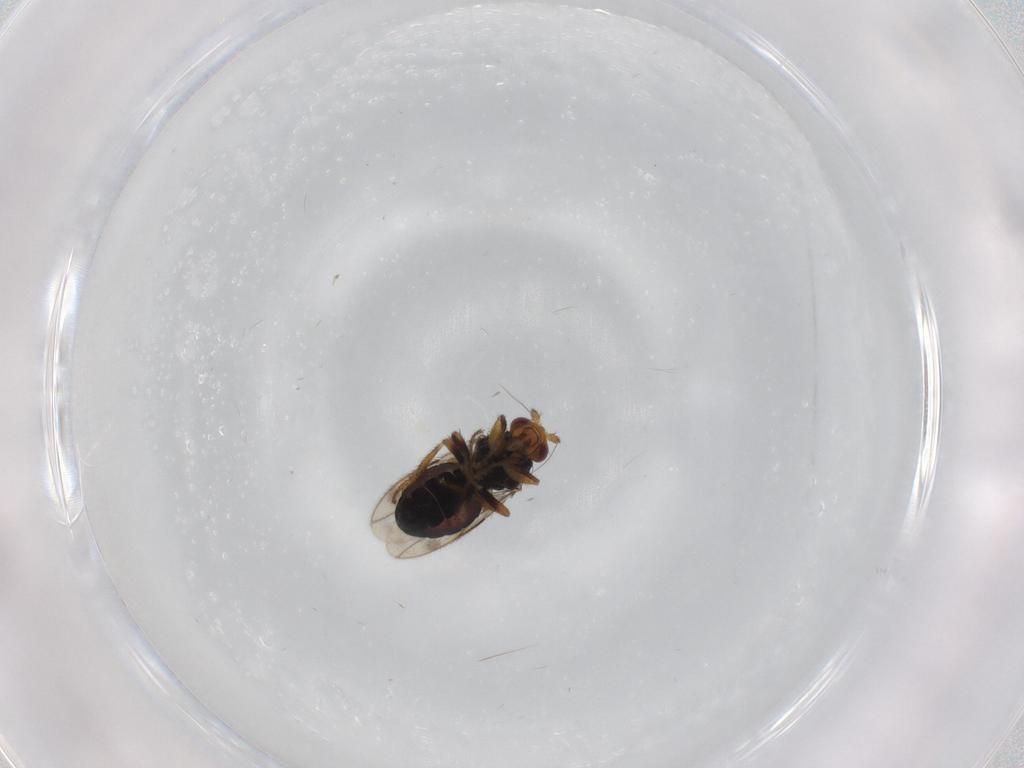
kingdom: Animalia
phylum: Arthropoda
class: Insecta
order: Diptera
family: Sphaeroceridae
